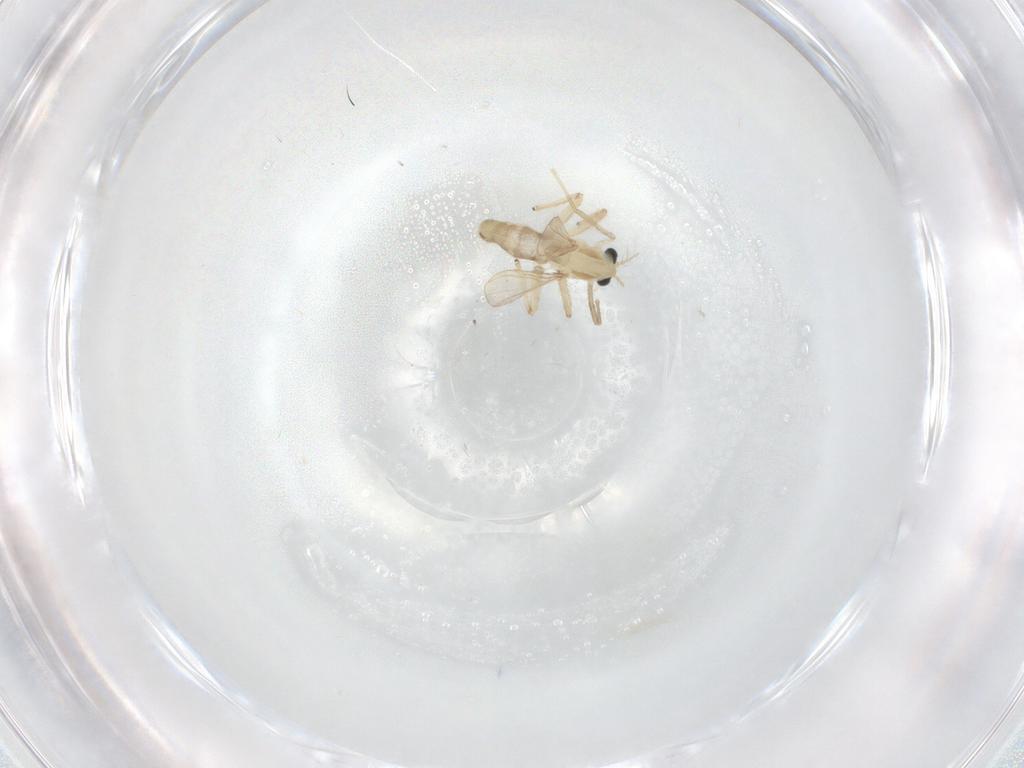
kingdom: Animalia
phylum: Arthropoda
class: Insecta
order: Diptera
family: Chironomidae
